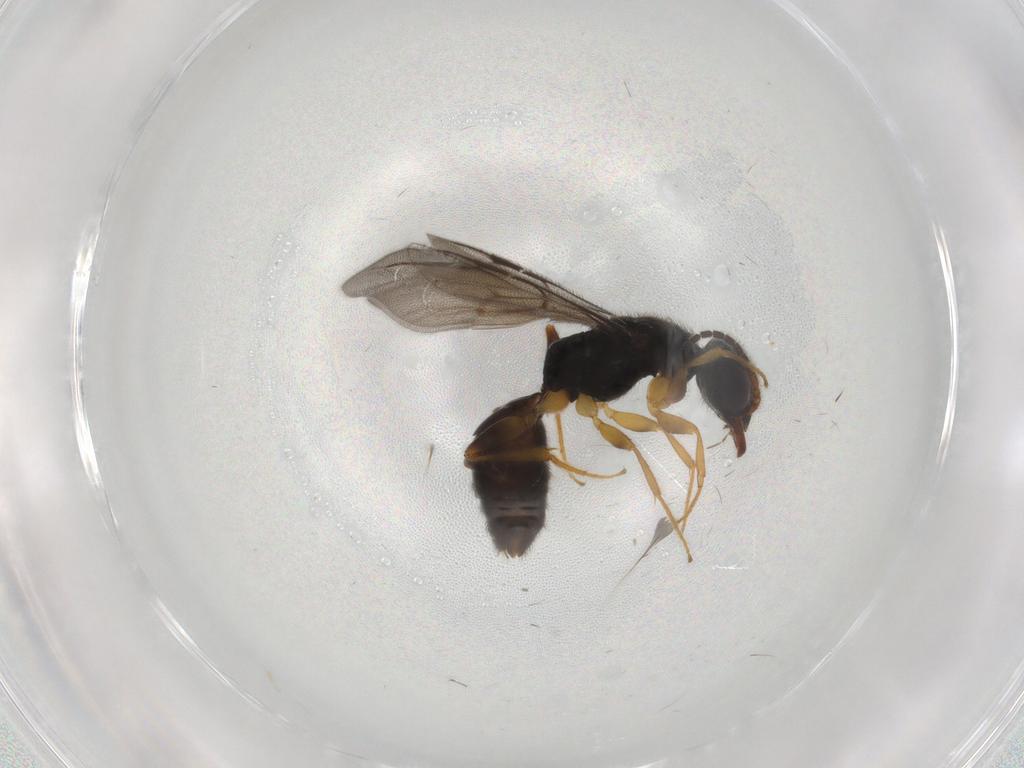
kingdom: Animalia
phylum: Arthropoda
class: Insecta
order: Hymenoptera
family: Bethylidae
